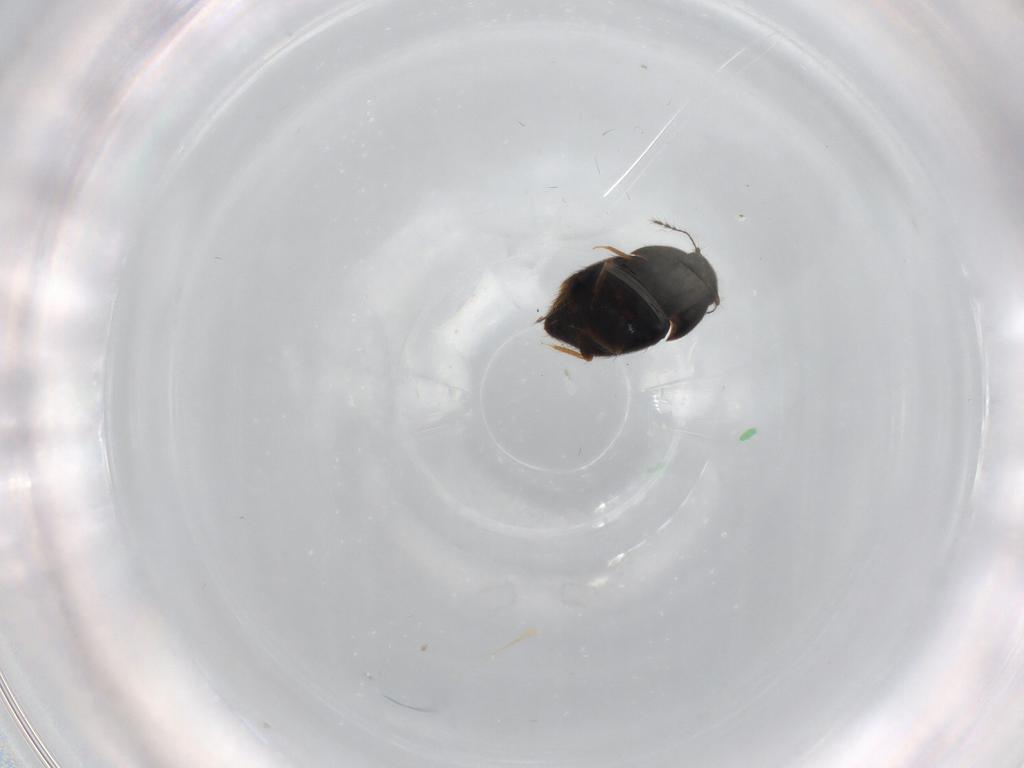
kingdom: Animalia
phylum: Arthropoda
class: Insecta
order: Coleoptera
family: Ptiliidae
